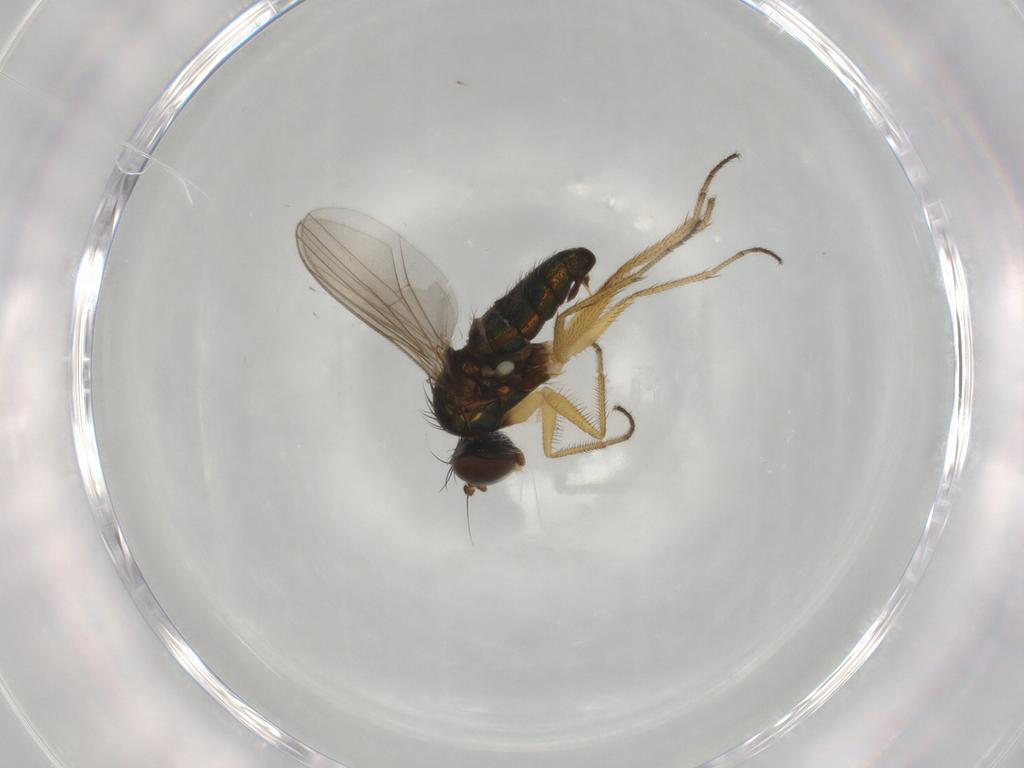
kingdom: Animalia
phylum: Arthropoda
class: Insecta
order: Diptera
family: Dolichopodidae
